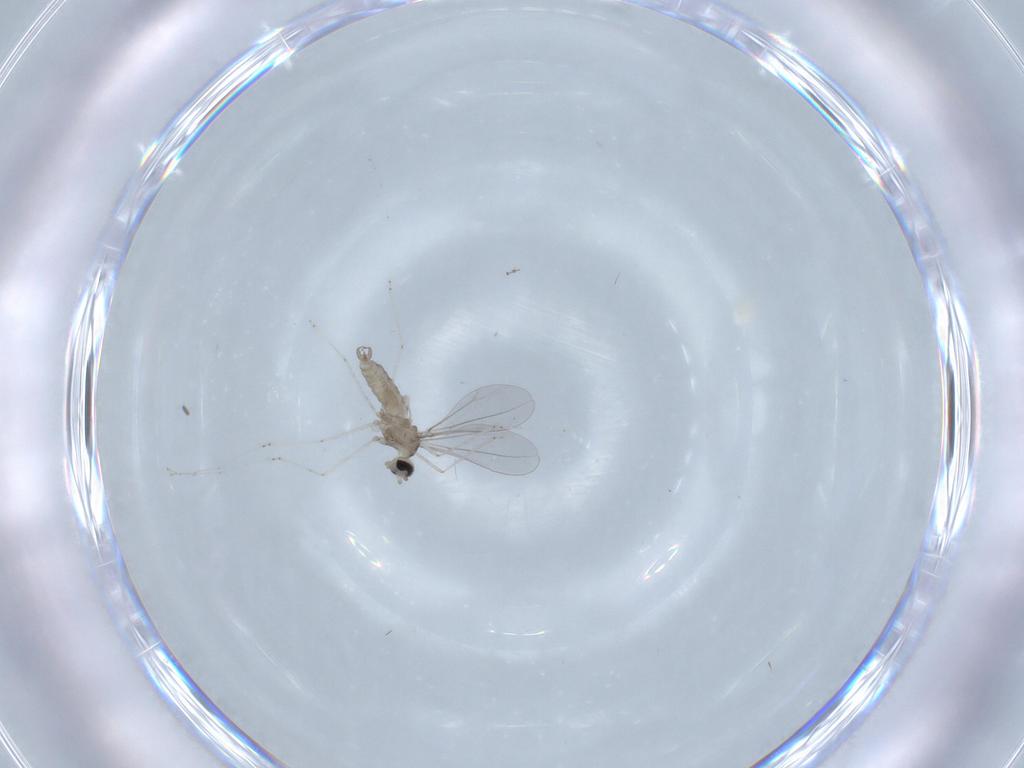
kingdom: Animalia
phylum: Arthropoda
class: Insecta
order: Diptera
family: Cecidomyiidae
